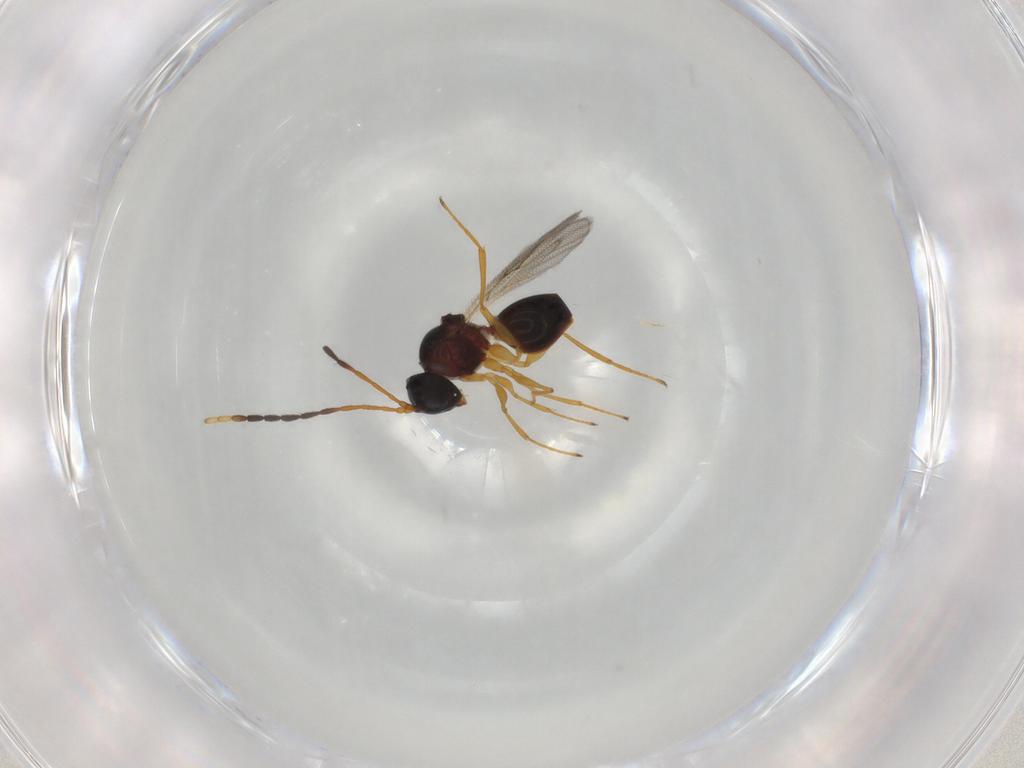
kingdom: Animalia
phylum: Arthropoda
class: Insecta
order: Hymenoptera
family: Figitidae
